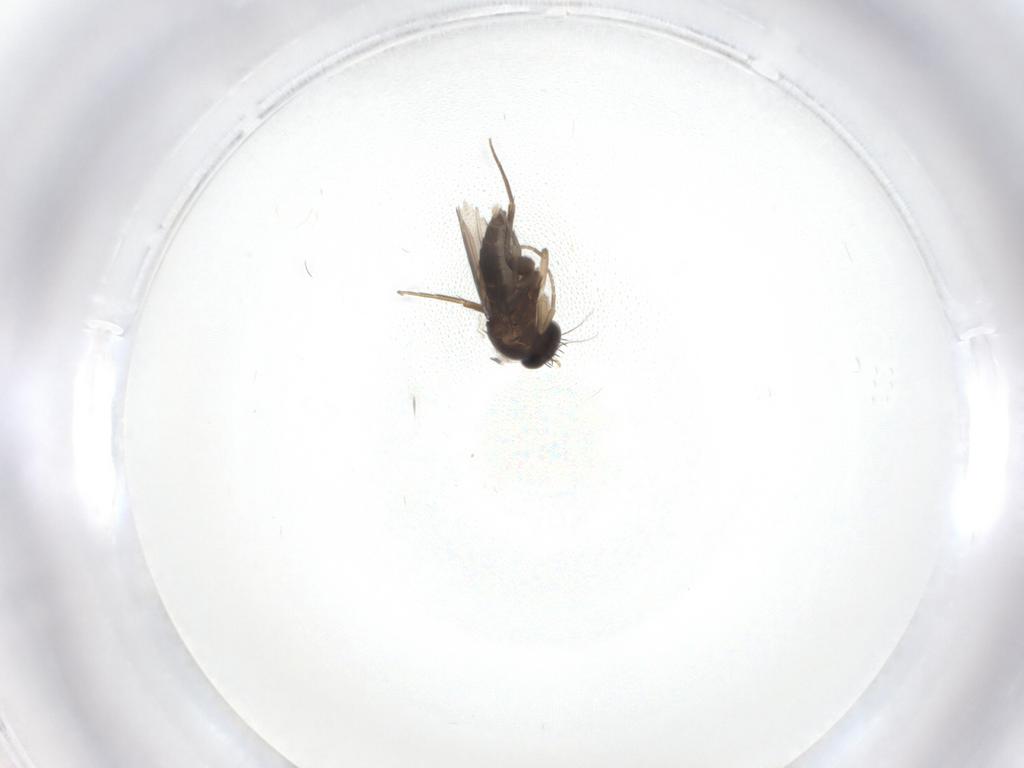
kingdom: Animalia
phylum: Arthropoda
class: Insecta
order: Diptera
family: Phoridae
